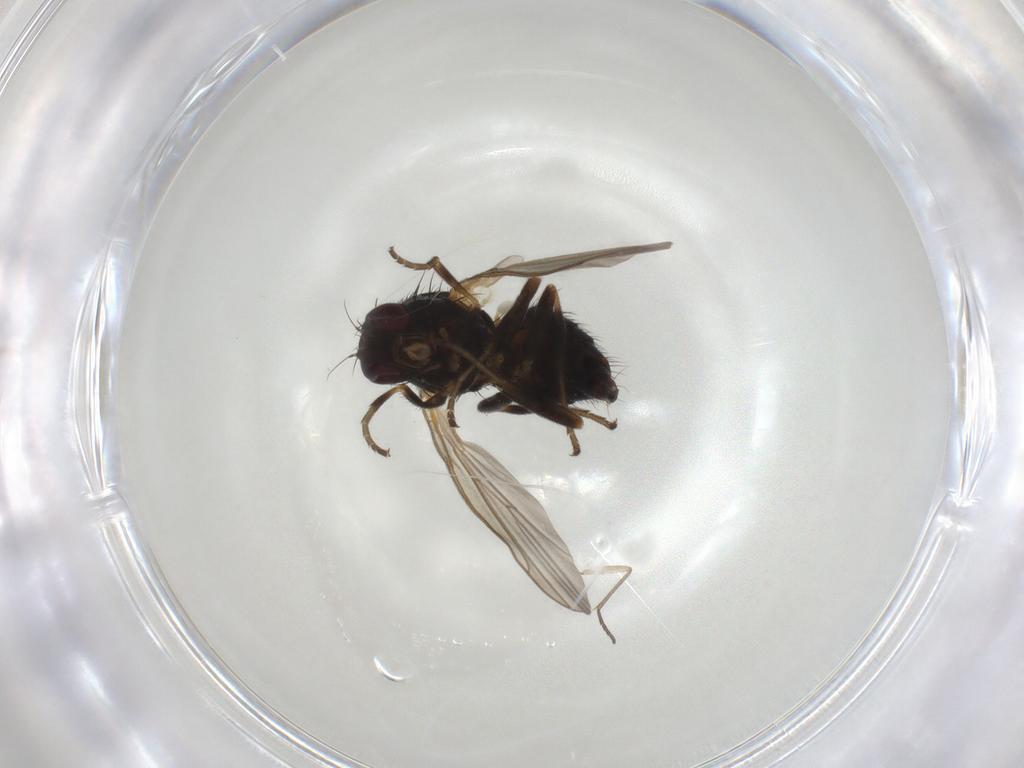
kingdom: Animalia
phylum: Arthropoda
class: Insecta
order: Diptera
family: Agromyzidae
